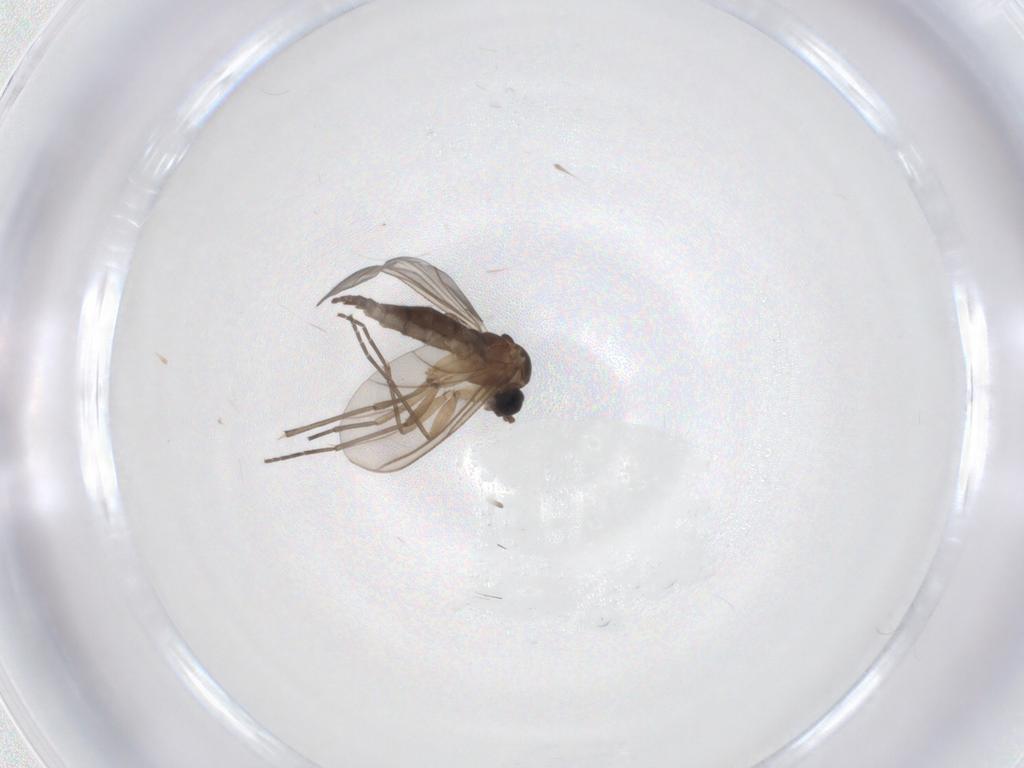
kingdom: Animalia
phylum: Arthropoda
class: Insecta
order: Diptera
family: Sciaridae
